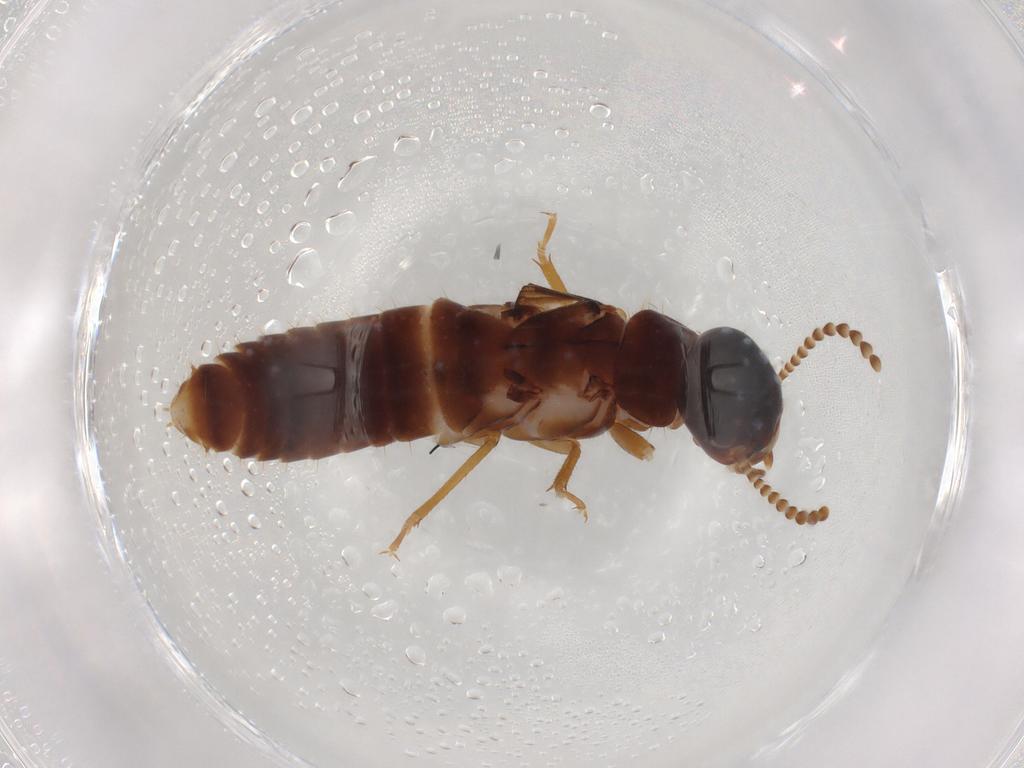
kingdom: Animalia
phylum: Arthropoda
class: Insecta
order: Blattodea
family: Kalotermitidae
